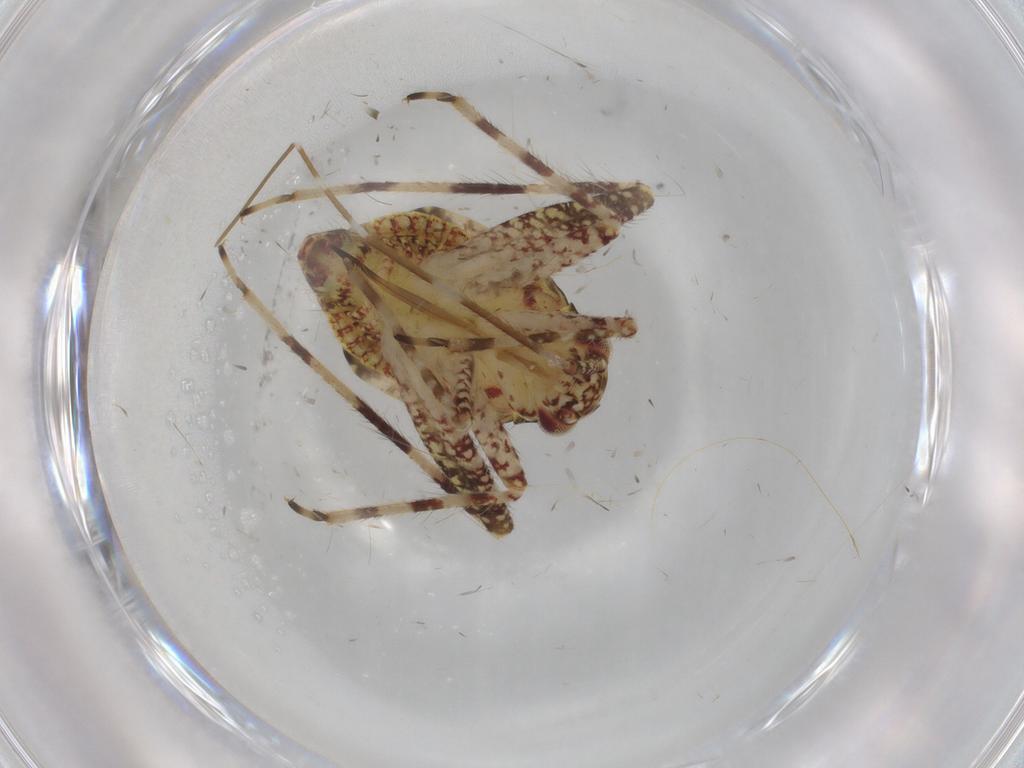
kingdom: Animalia
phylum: Arthropoda
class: Insecta
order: Hemiptera
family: Miridae
